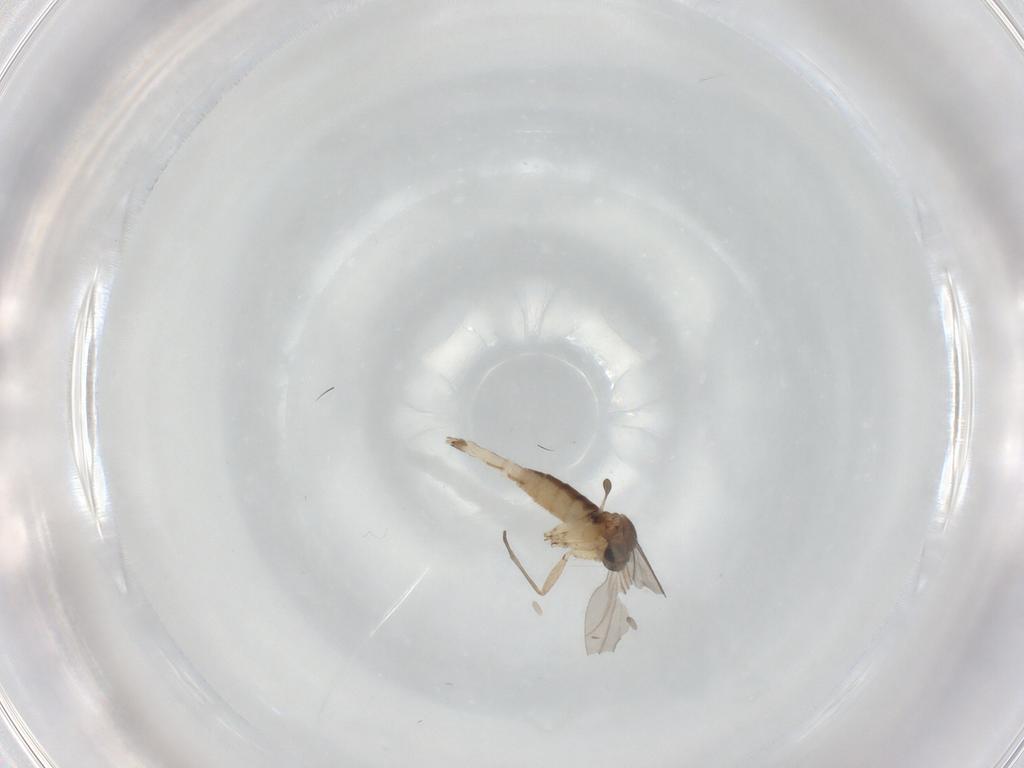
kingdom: Animalia
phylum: Arthropoda
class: Insecta
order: Diptera
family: Sciaridae
